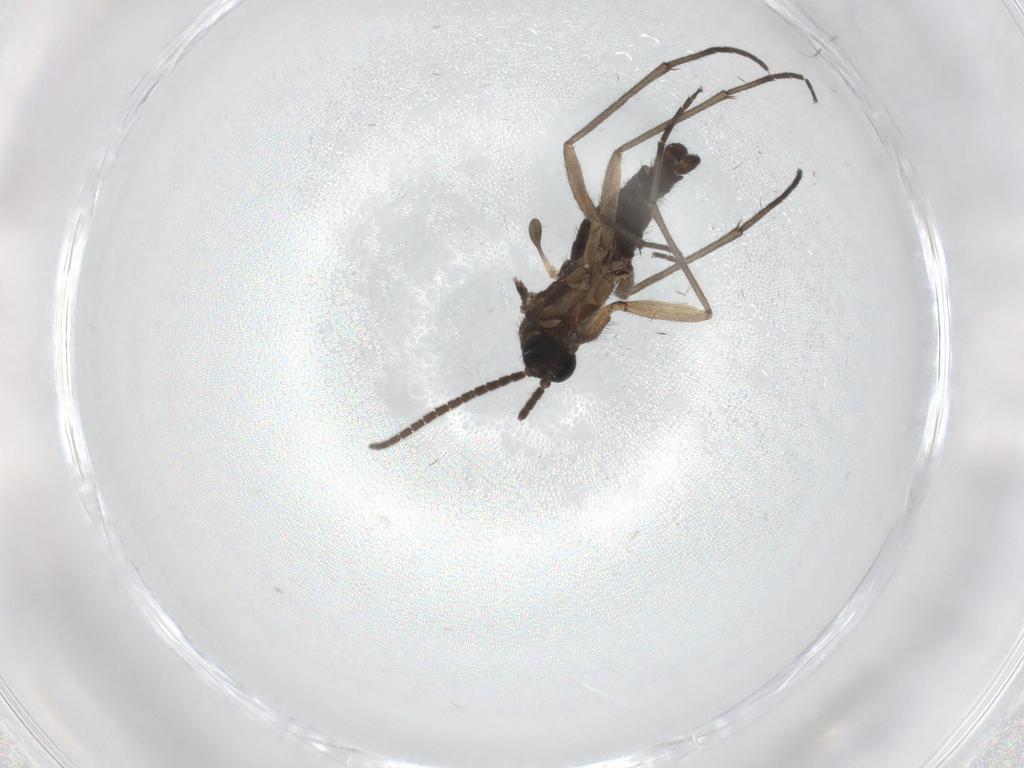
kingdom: Animalia
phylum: Arthropoda
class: Insecta
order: Diptera
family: Sciaridae
